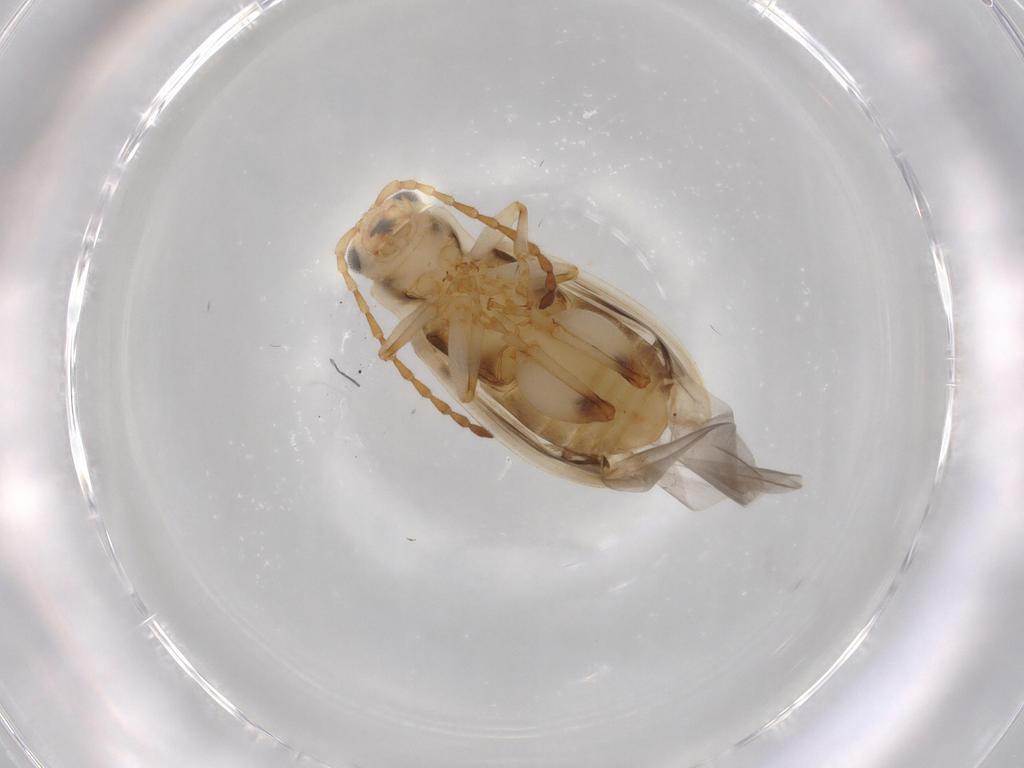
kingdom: Animalia
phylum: Arthropoda
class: Insecta
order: Coleoptera
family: Chrysomelidae
